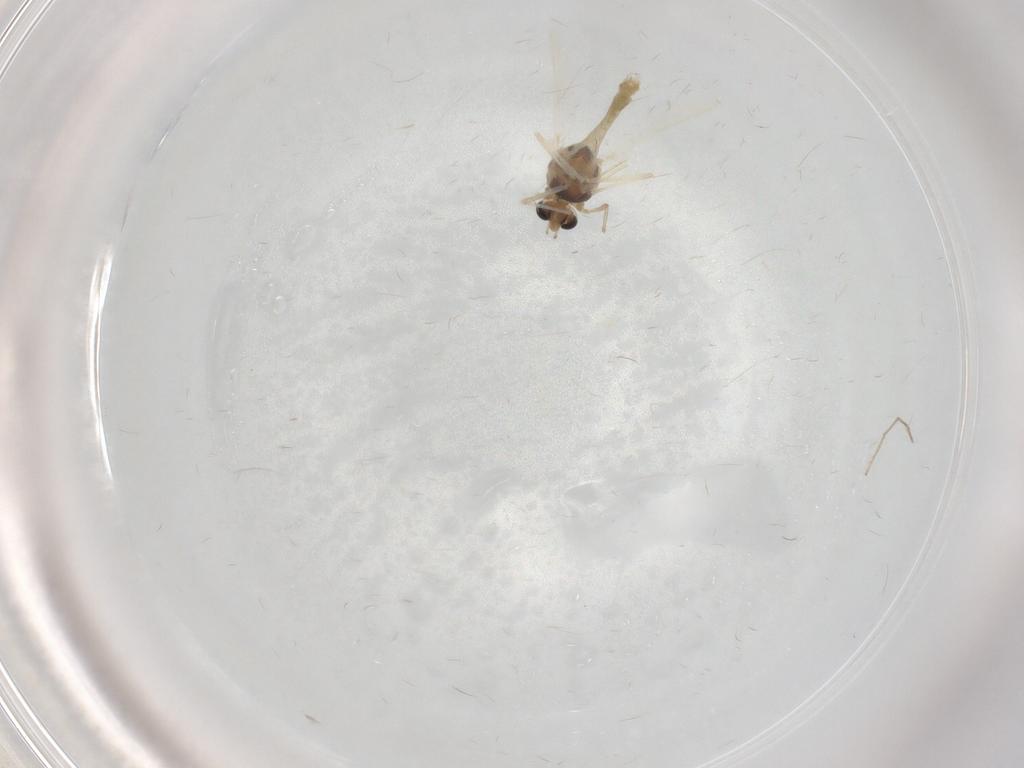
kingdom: Animalia
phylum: Arthropoda
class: Insecta
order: Diptera
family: Chironomidae
